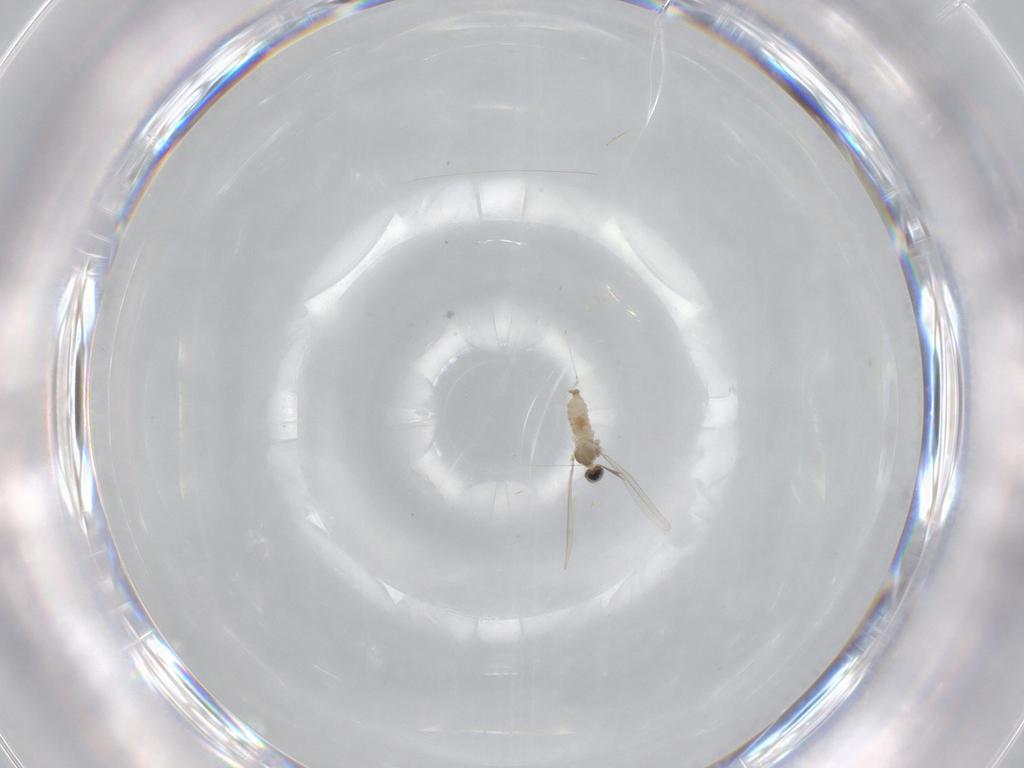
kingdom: Animalia
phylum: Arthropoda
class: Insecta
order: Diptera
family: Cecidomyiidae
